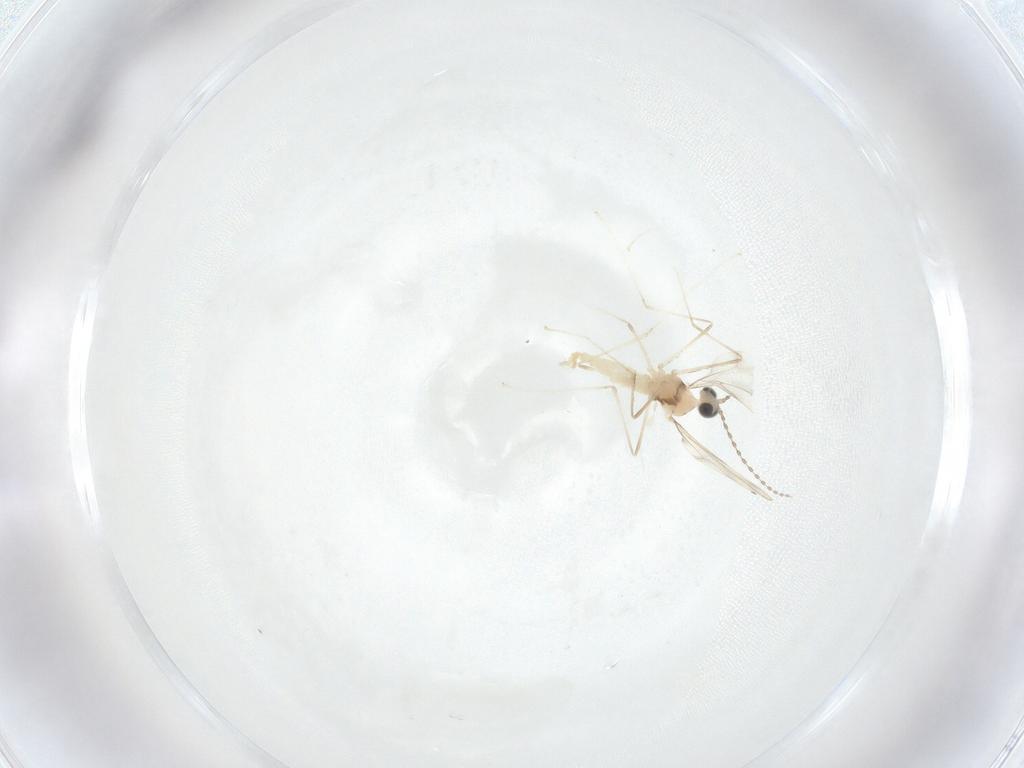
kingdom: Animalia
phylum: Arthropoda
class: Insecta
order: Diptera
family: Cecidomyiidae
